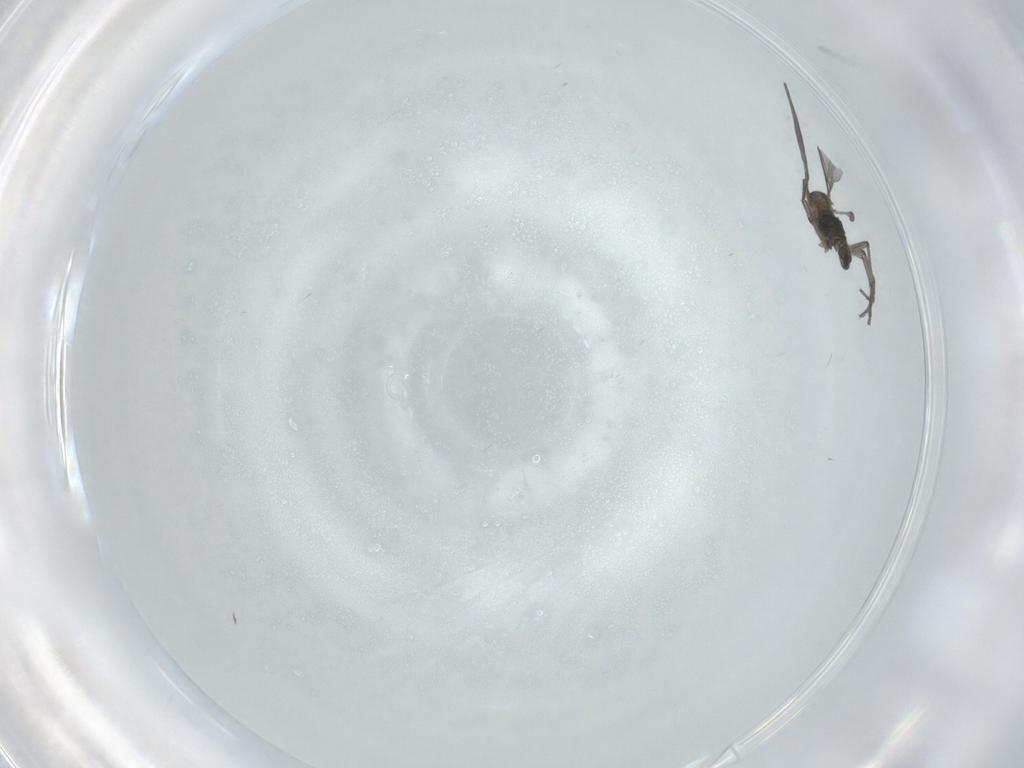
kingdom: Animalia
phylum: Arthropoda
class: Insecta
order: Diptera
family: Sciaridae
